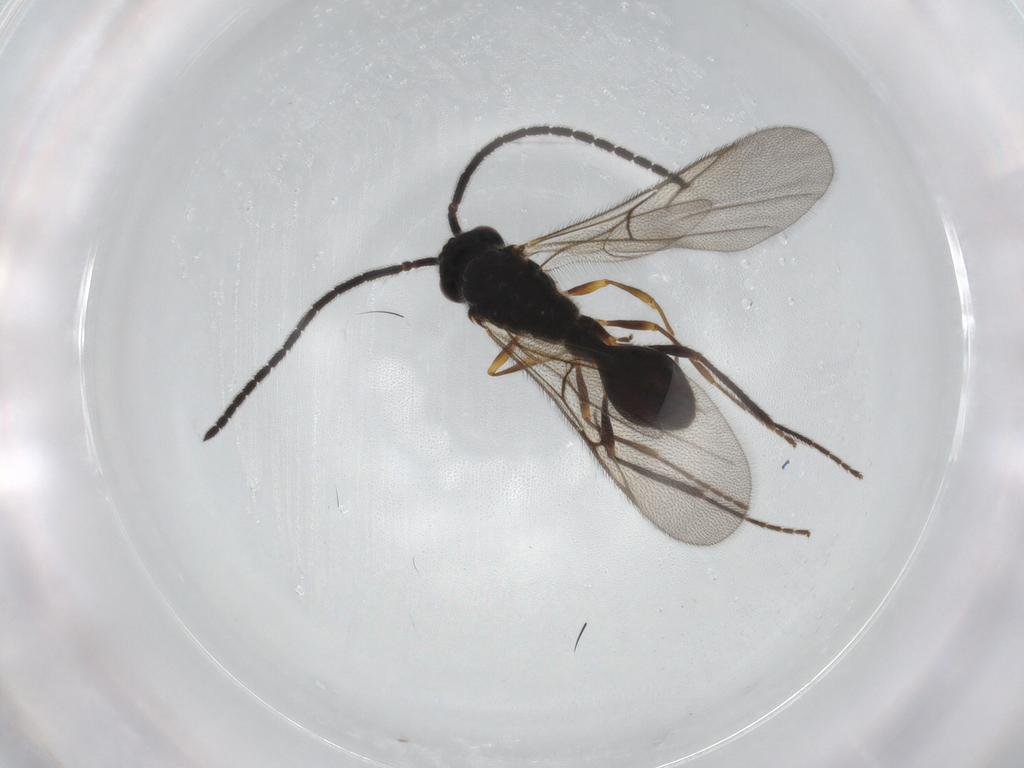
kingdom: Animalia
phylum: Arthropoda
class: Insecta
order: Hymenoptera
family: Diapriidae
